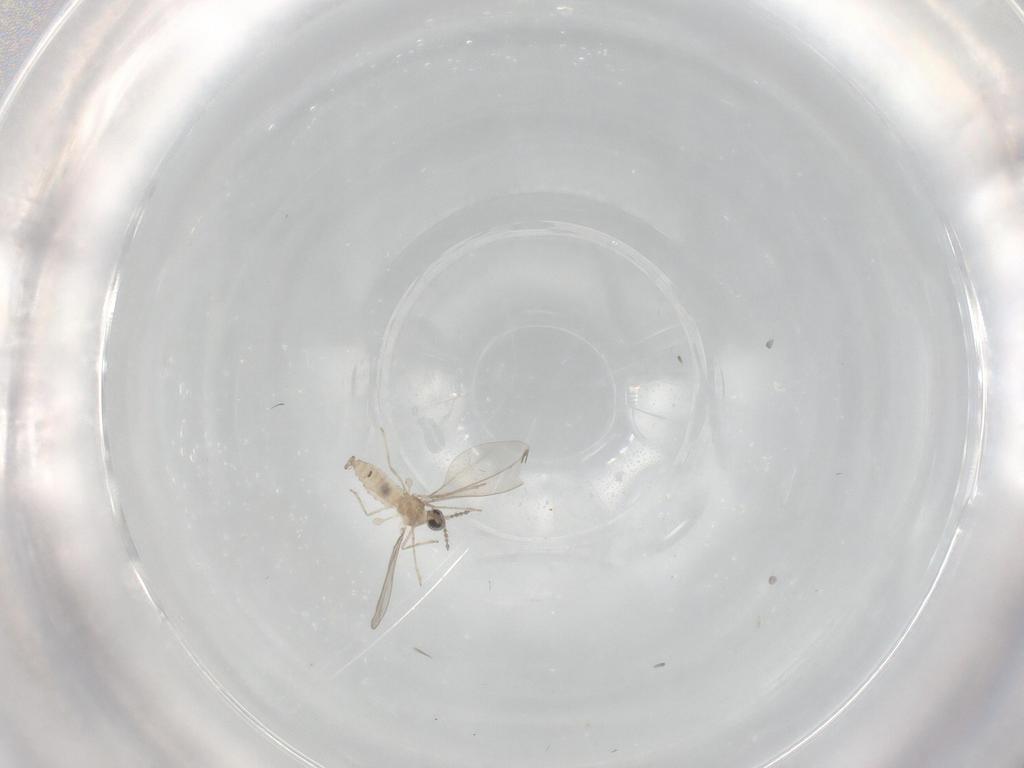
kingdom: Animalia
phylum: Arthropoda
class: Insecta
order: Diptera
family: Cecidomyiidae
